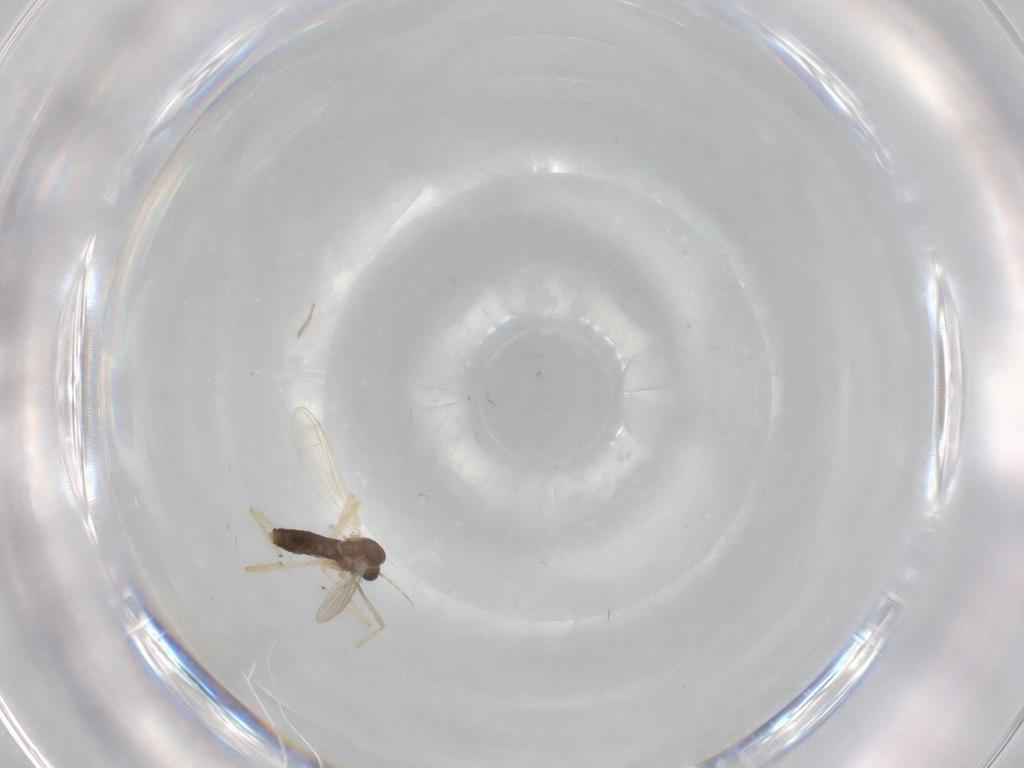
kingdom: Animalia
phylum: Arthropoda
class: Insecta
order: Diptera
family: Chironomidae
